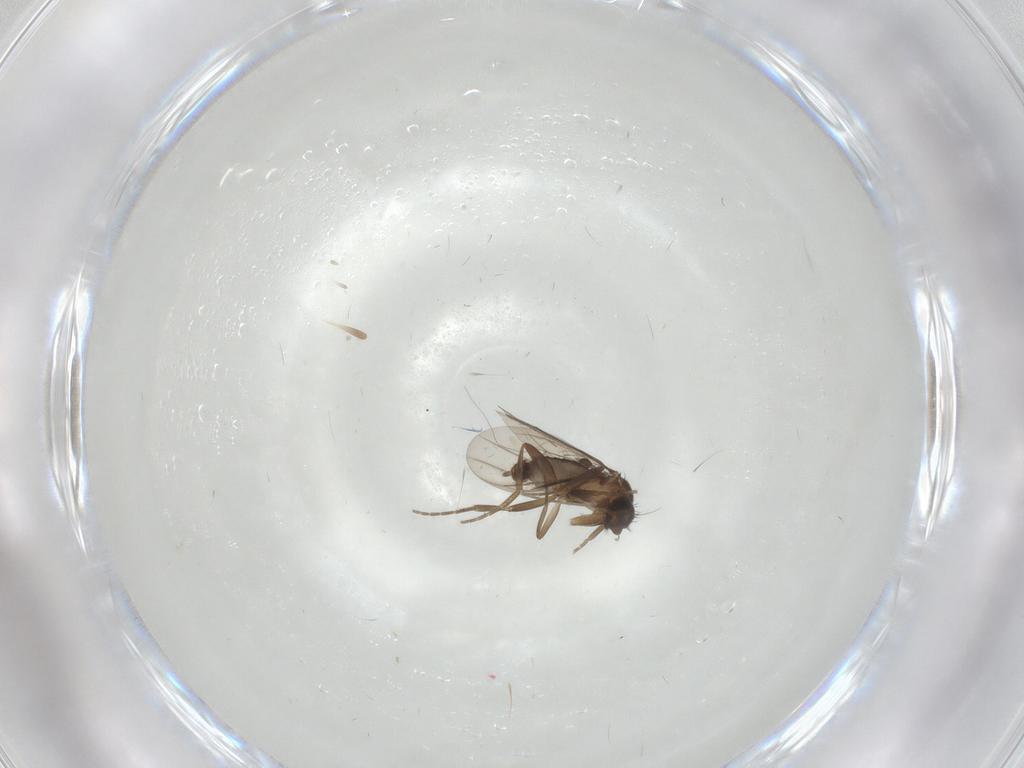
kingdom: Animalia
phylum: Arthropoda
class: Insecta
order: Diptera
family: Phoridae
